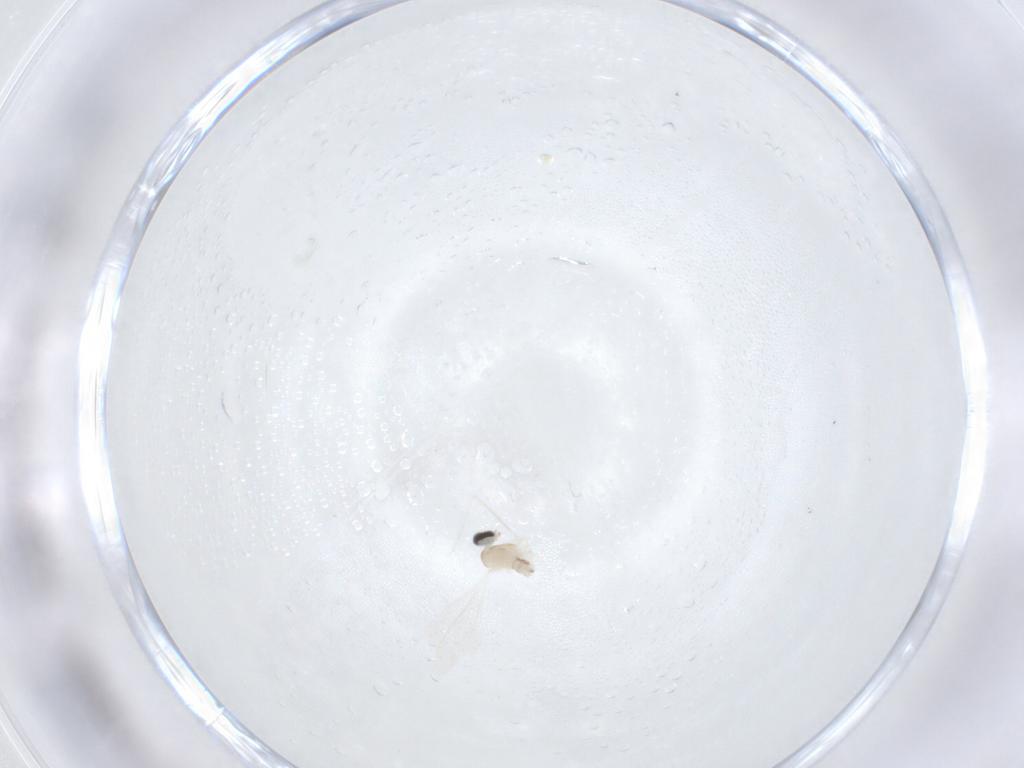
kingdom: Animalia
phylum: Arthropoda
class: Insecta
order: Diptera
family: Cecidomyiidae
